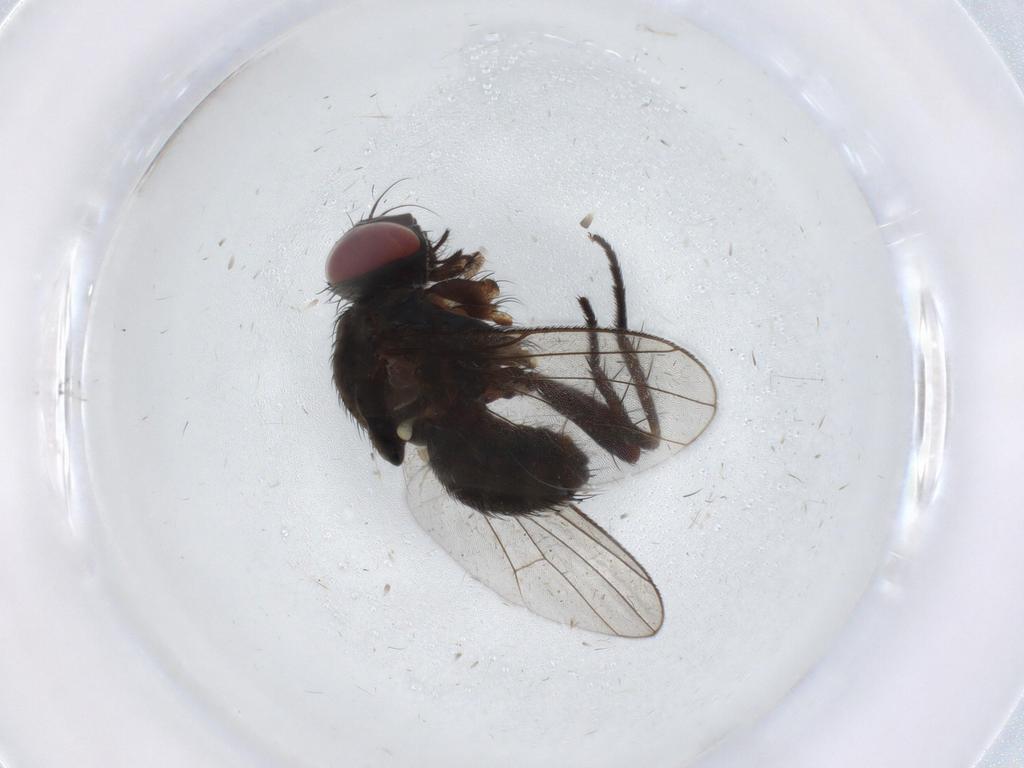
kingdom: Animalia
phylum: Arthropoda
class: Insecta
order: Diptera
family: Muscidae
